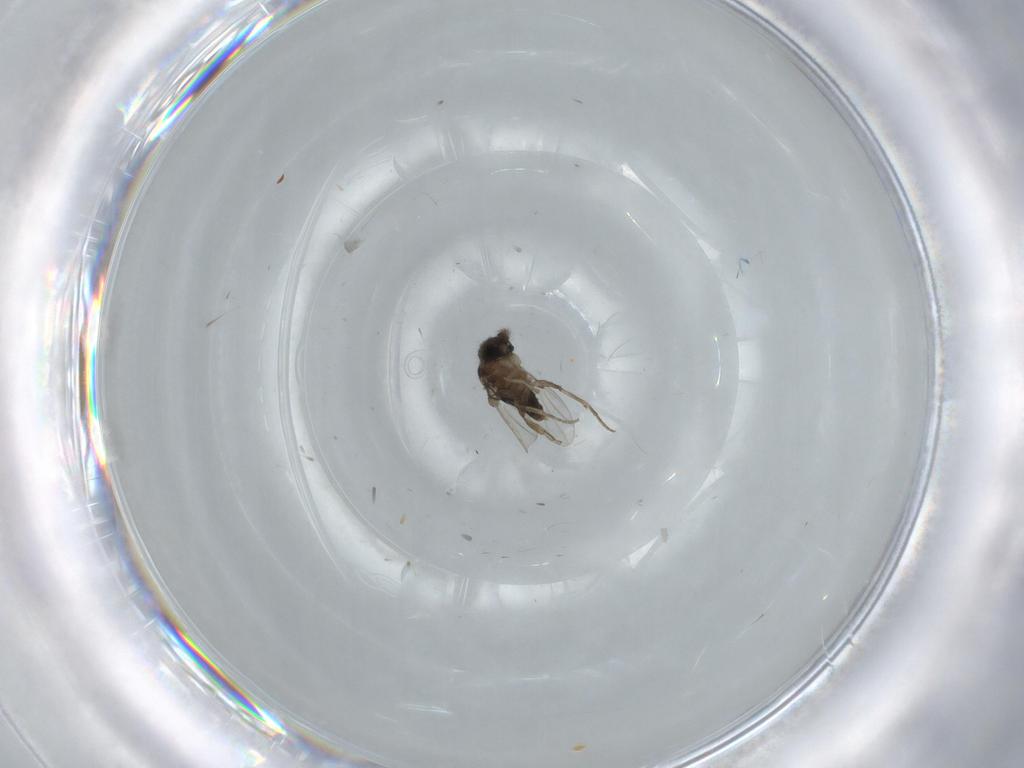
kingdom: Animalia
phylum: Arthropoda
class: Insecta
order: Diptera
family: Phoridae
